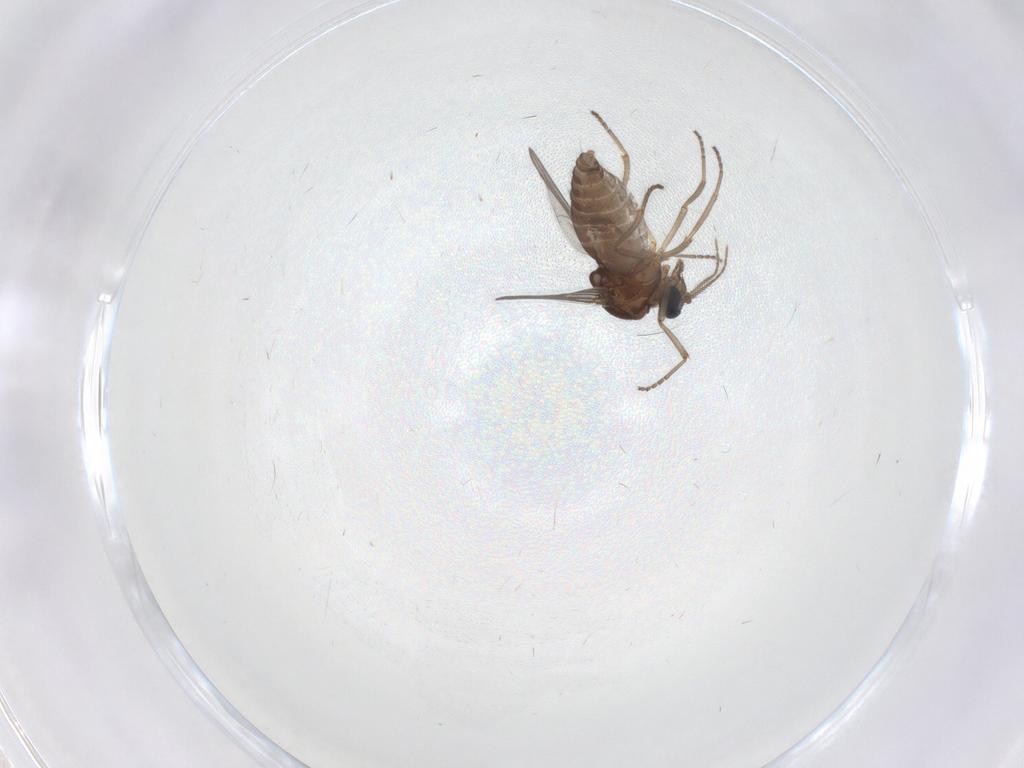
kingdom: Animalia
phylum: Arthropoda
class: Insecta
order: Diptera
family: Ceratopogonidae
